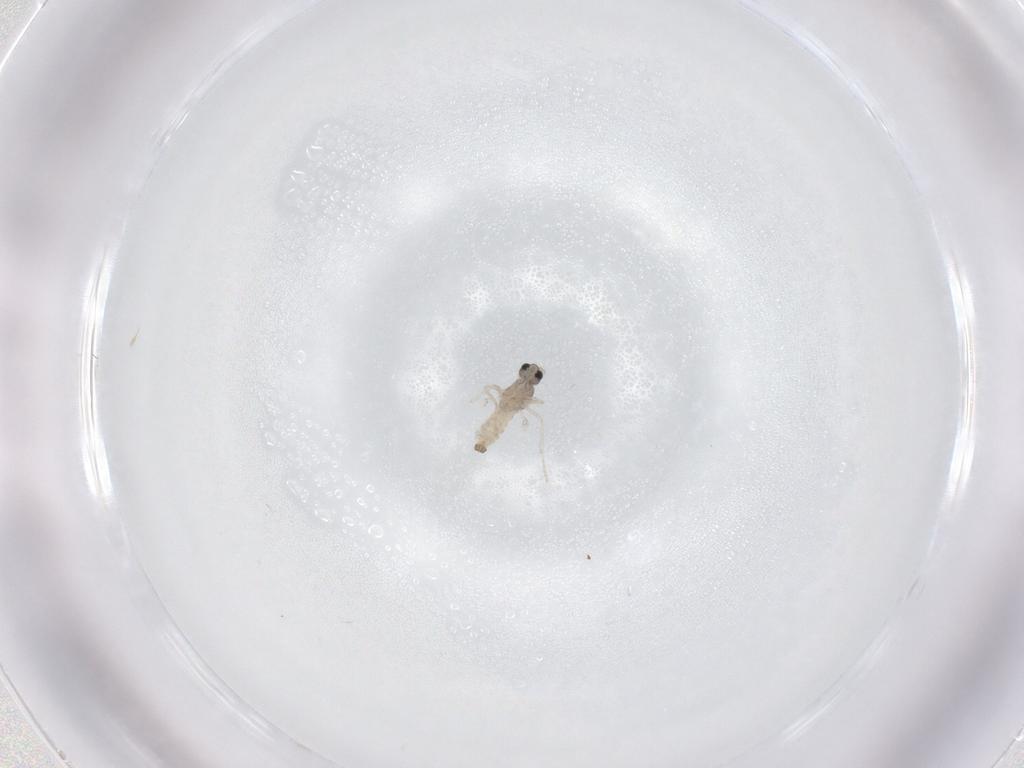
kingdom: Animalia
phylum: Arthropoda
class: Insecta
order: Diptera
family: Cecidomyiidae
